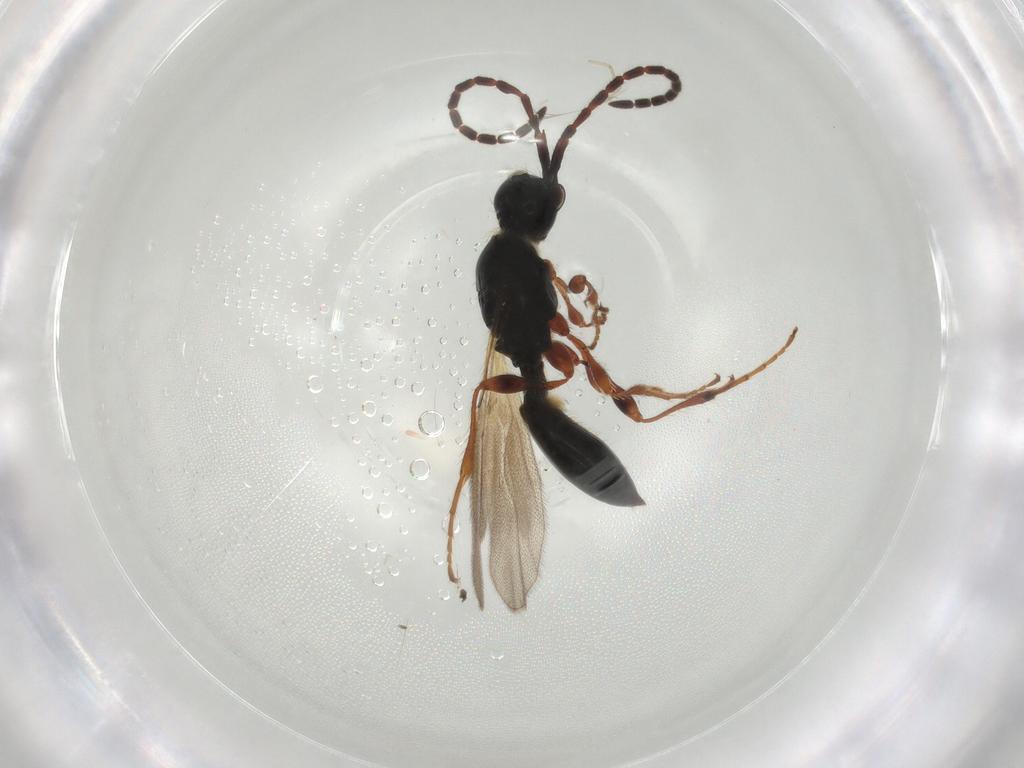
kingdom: Animalia
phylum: Arthropoda
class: Insecta
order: Hymenoptera
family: Diapriidae
